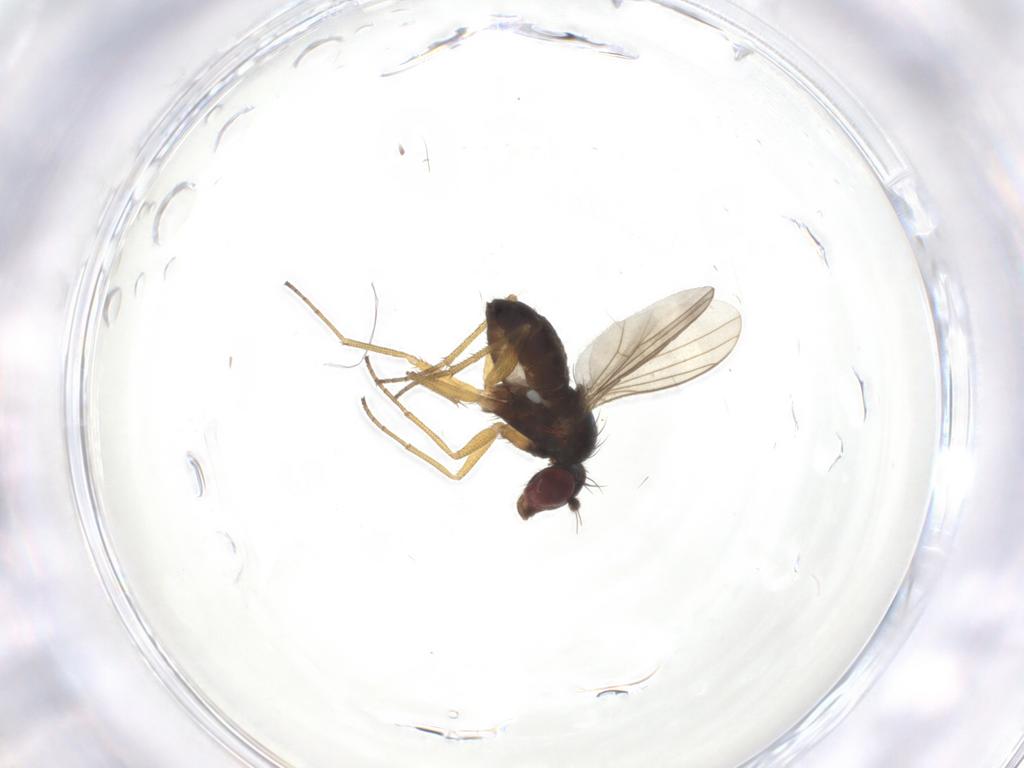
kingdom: Animalia
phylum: Arthropoda
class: Insecta
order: Diptera
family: Dolichopodidae
